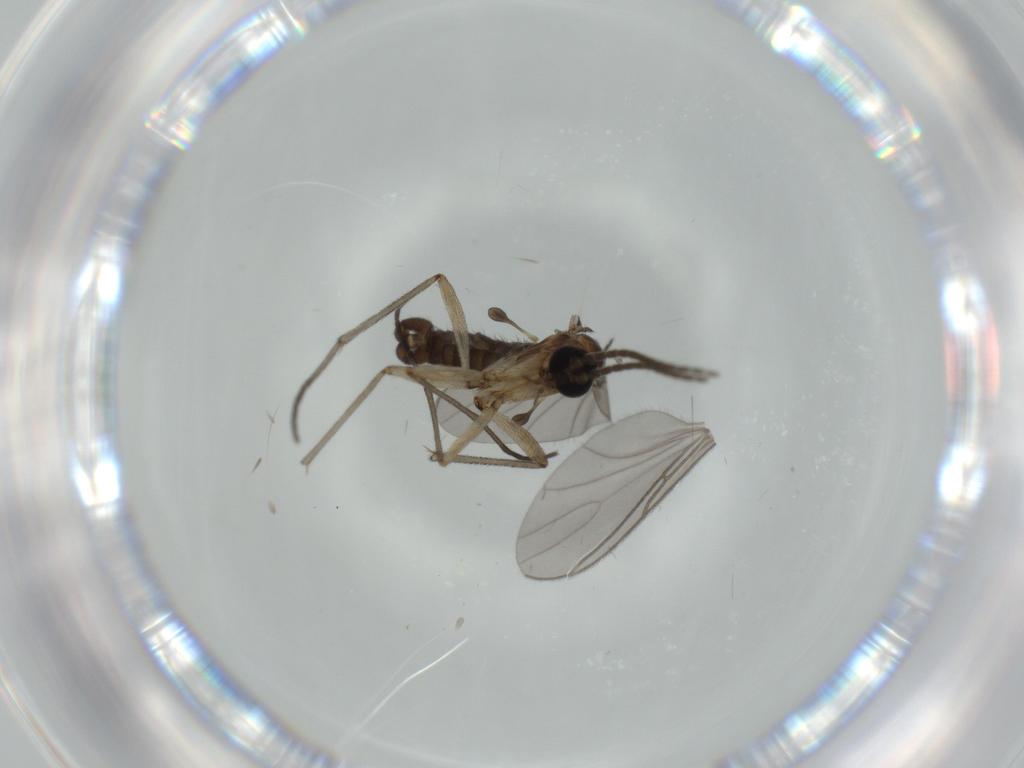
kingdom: Animalia
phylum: Arthropoda
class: Insecta
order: Diptera
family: Sciaridae
